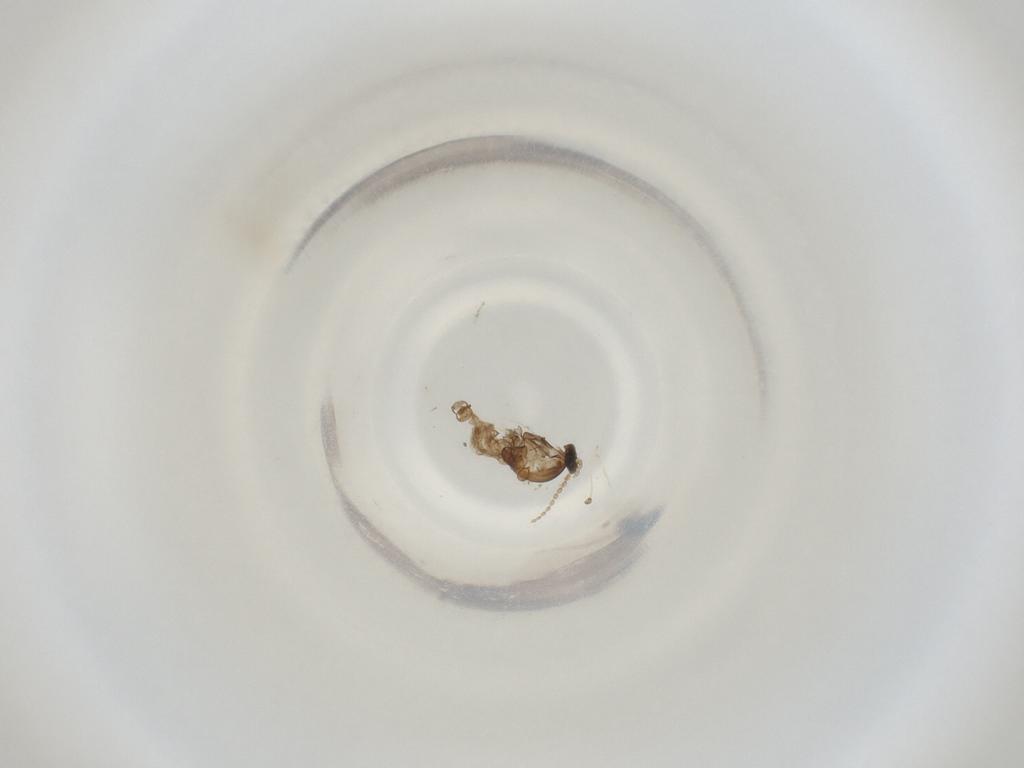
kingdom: Animalia
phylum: Arthropoda
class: Insecta
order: Diptera
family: Cecidomyiidae
